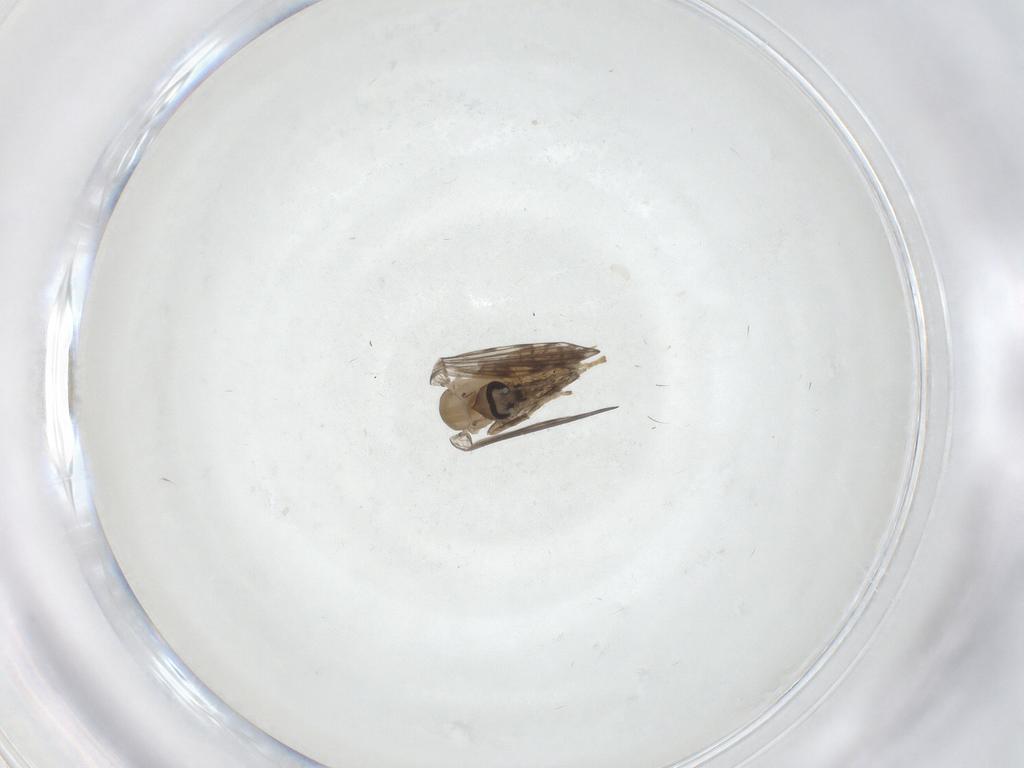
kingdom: Animalia
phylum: Arthropoda
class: Insecta
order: Diptera
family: Psychodidae
